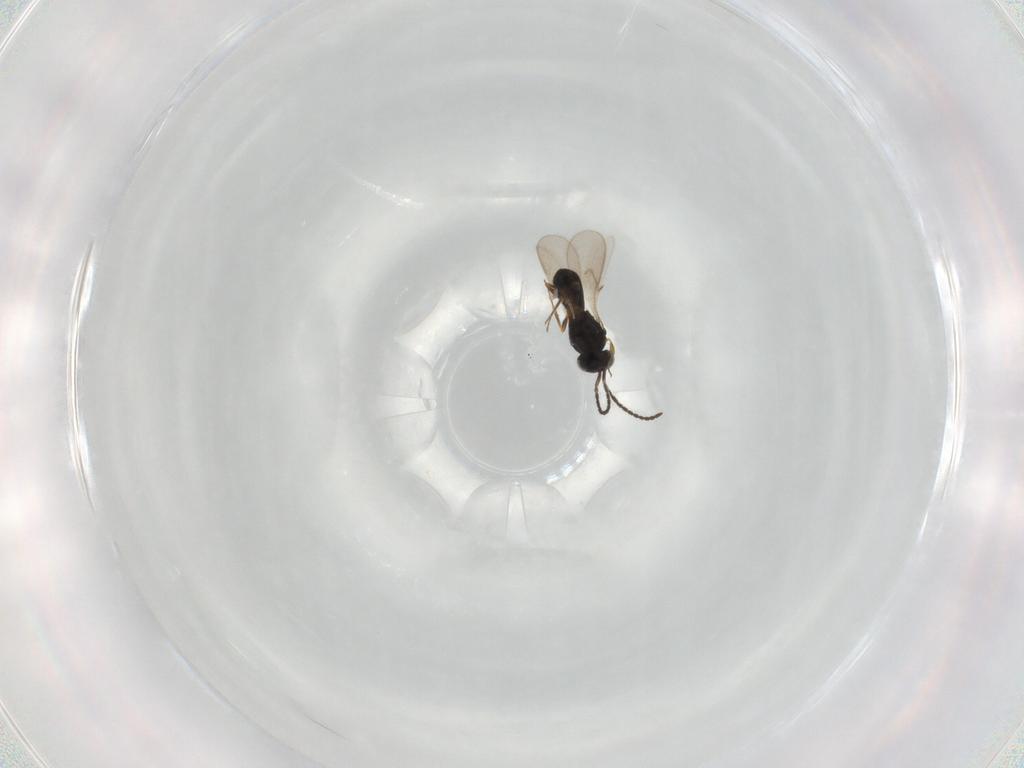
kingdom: Animalia
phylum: Arthropoda
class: Insecta
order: Hymenoptera
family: Scelionidae
